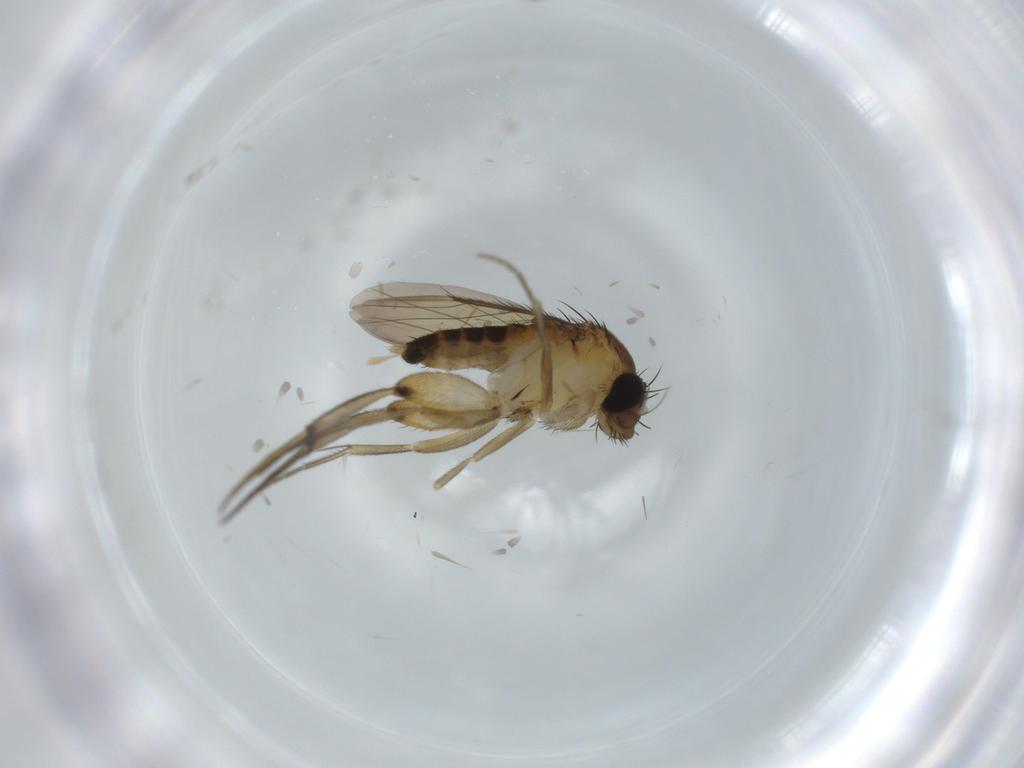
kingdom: Animalia
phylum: Arthropoda
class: Insecta
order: Diptera
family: Phoridae
